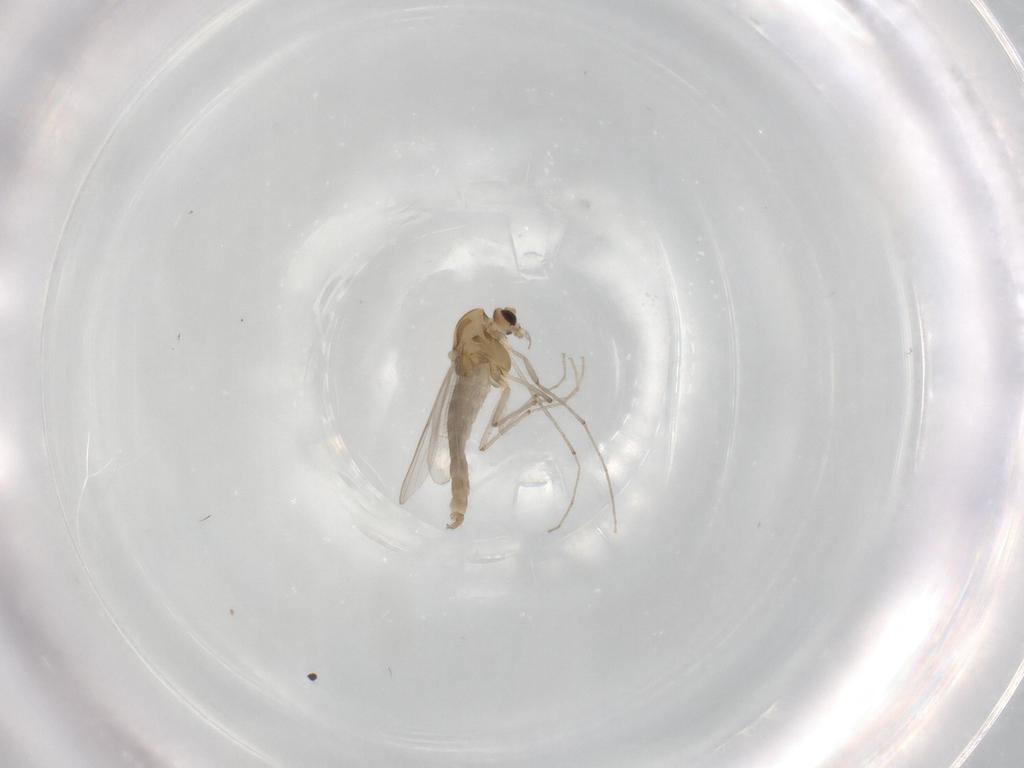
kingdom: Animalia
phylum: Arthropoda
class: Insecta
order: Diptera
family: Chironomidae
